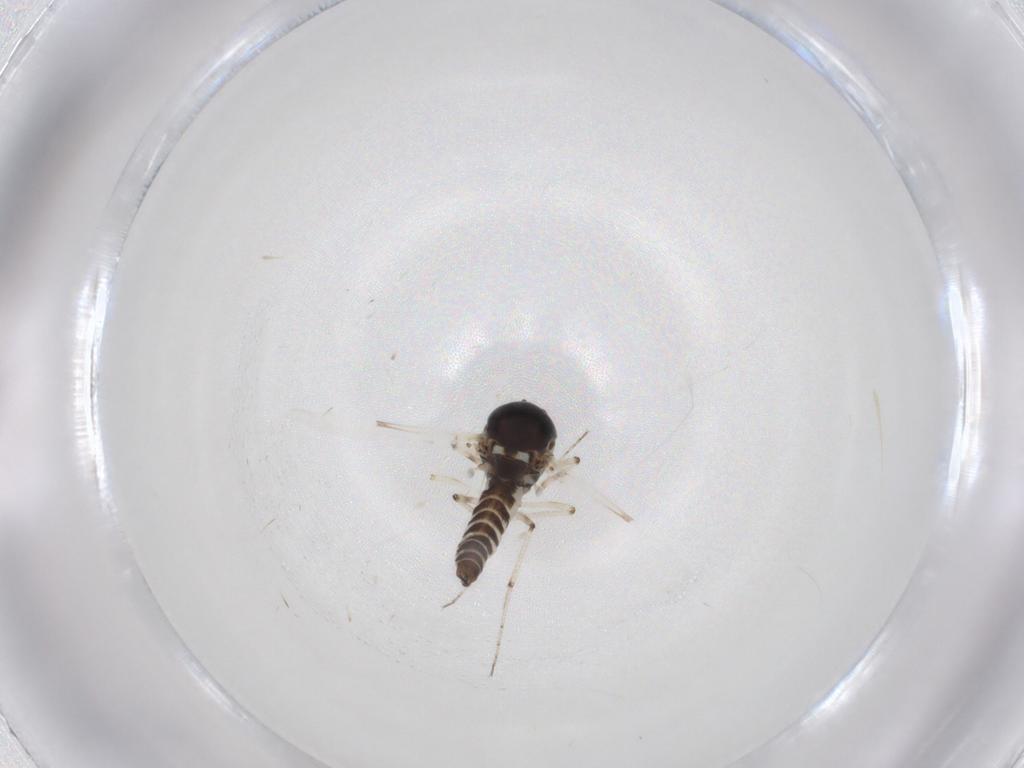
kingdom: Animalia
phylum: Arthropoda
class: Insecta
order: Diptera
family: Ceratopogonidae
